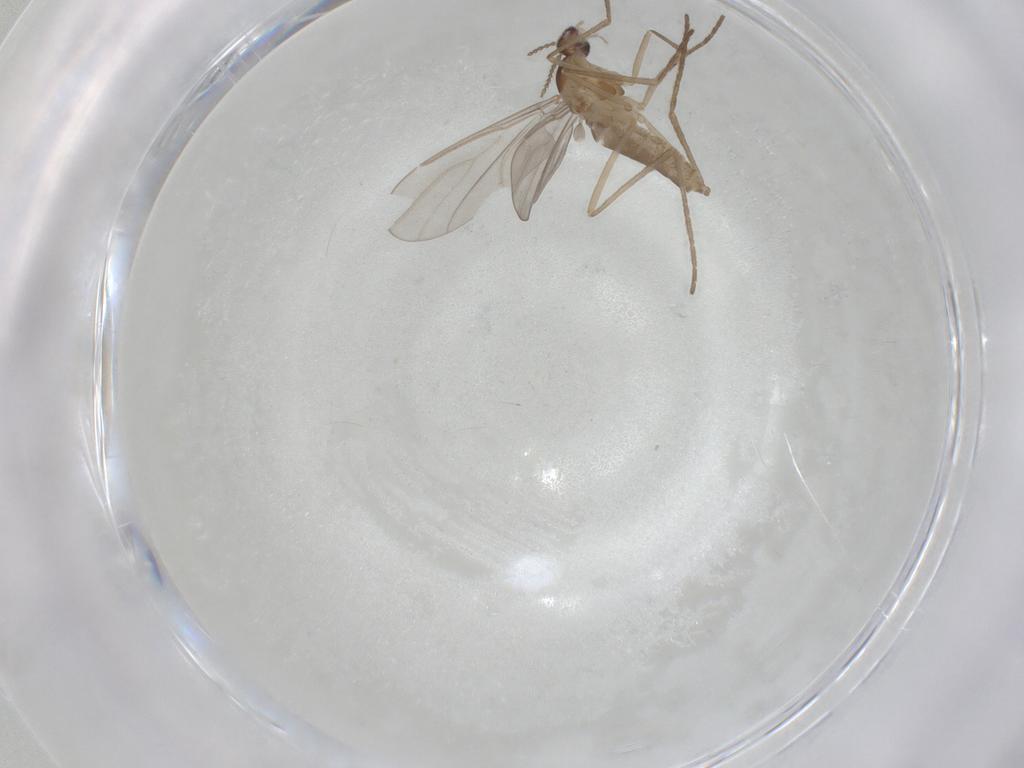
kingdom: Animalia
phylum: Arthropoda
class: Insecta
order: Diptera
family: Cecidomyiidae
